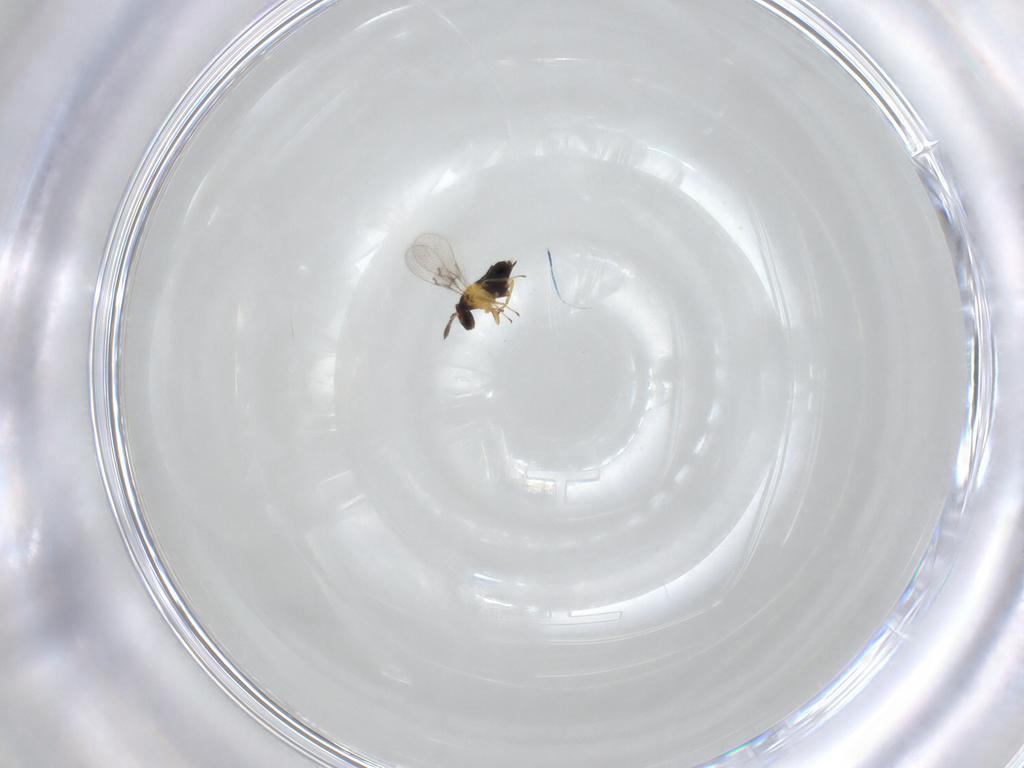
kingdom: Animalia
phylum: Arthropoda
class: Insecta
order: Hymenoptera
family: Trichogrammatidae
